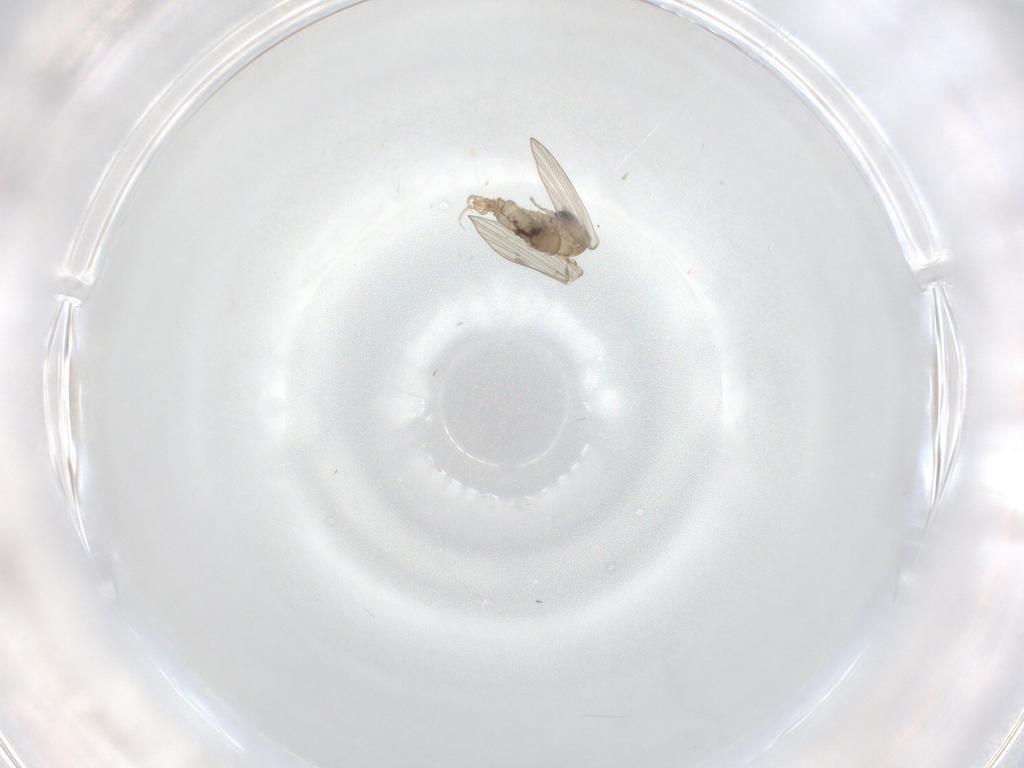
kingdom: Animalia
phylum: Arthropoda
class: Insecta
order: Diptera
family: Psychodidae
